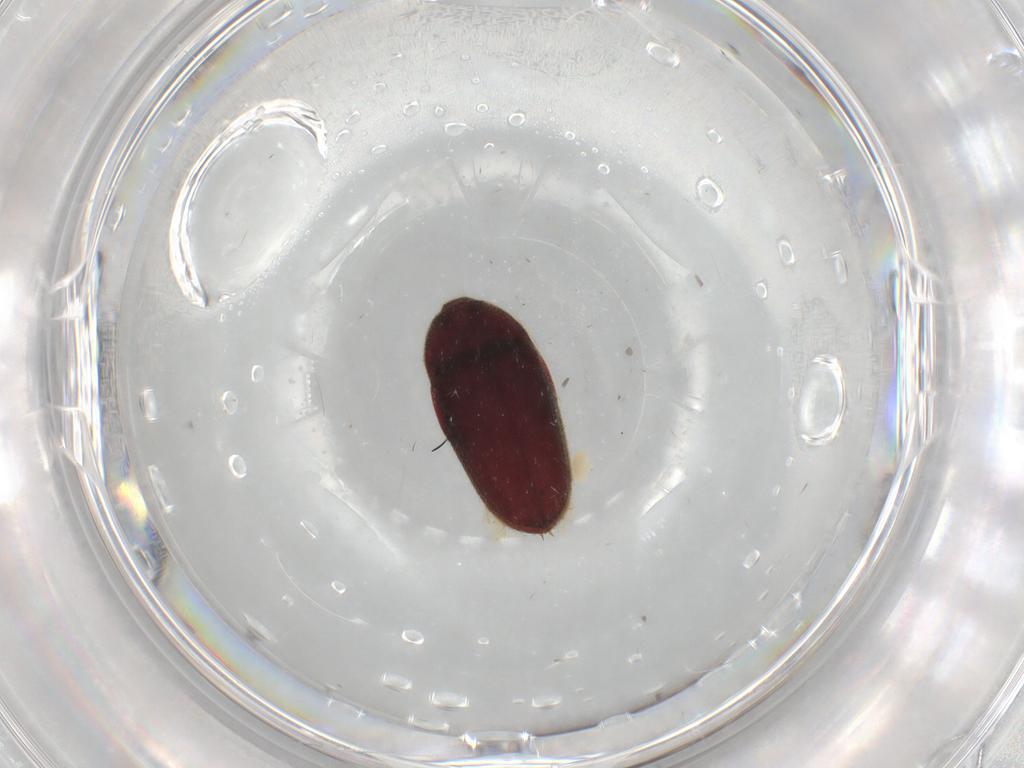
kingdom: Animalia
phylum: Arthropoda
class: Insecta
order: Coleoptera
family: Throscidae
